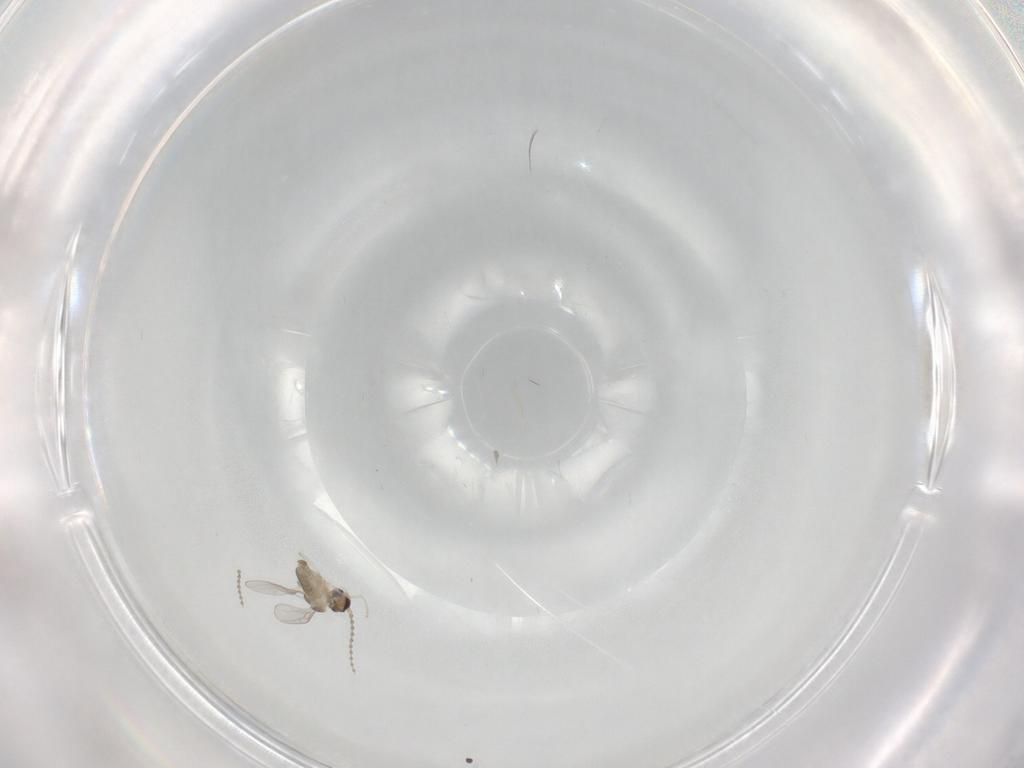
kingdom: Animalia
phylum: Arthropoda
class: Insecta
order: Diptera
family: Cecidomyiidae
